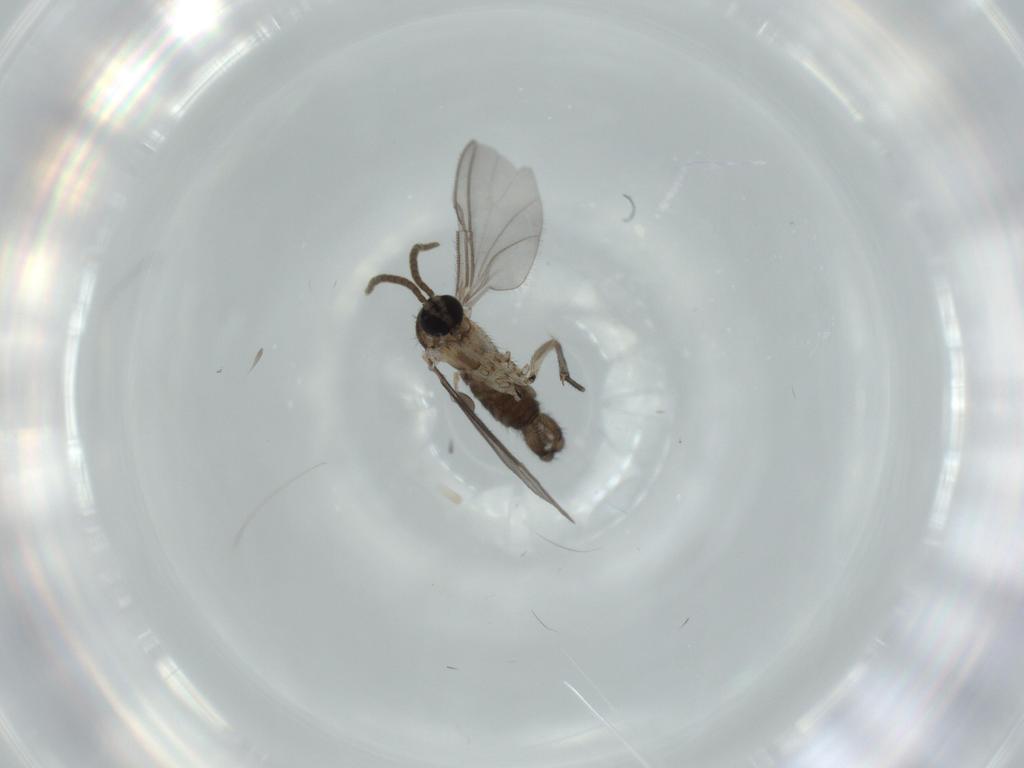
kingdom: Animalia
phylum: Arthropoda
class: Insecta
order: Diptera
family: Sciaridae
